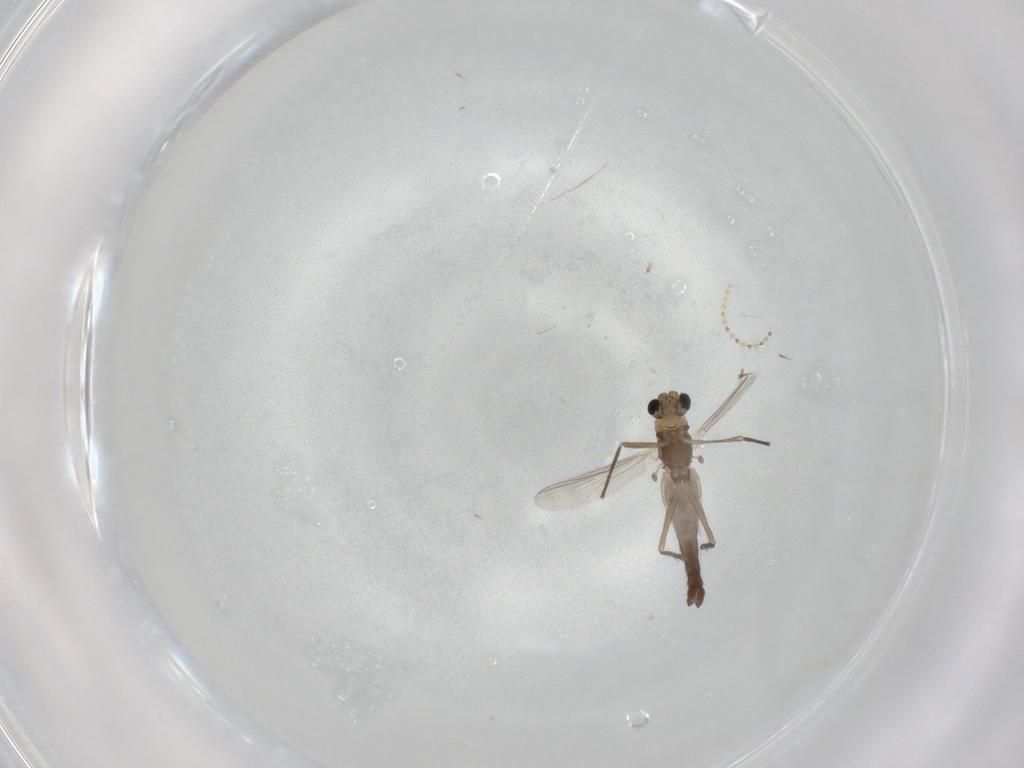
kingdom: Animalia
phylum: Arthropoda
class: Insecta
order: Diptera
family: Chironomidae
